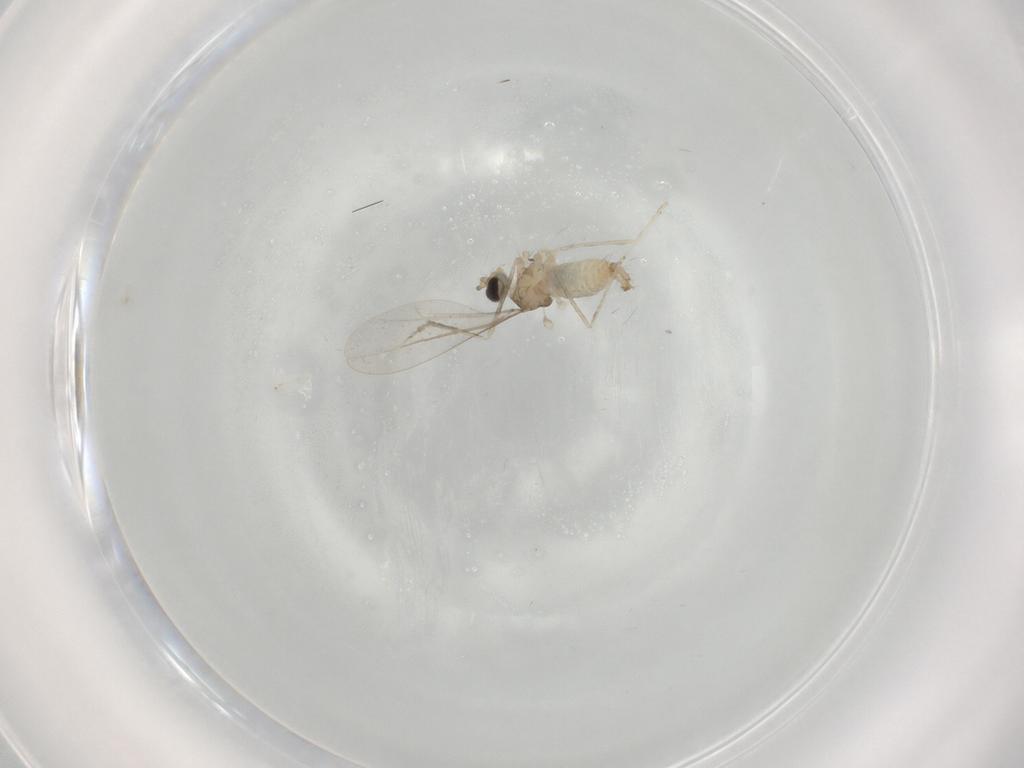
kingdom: Animalia
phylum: Arthropoda
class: Insecta
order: Diptera
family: Cecidomyiidae
